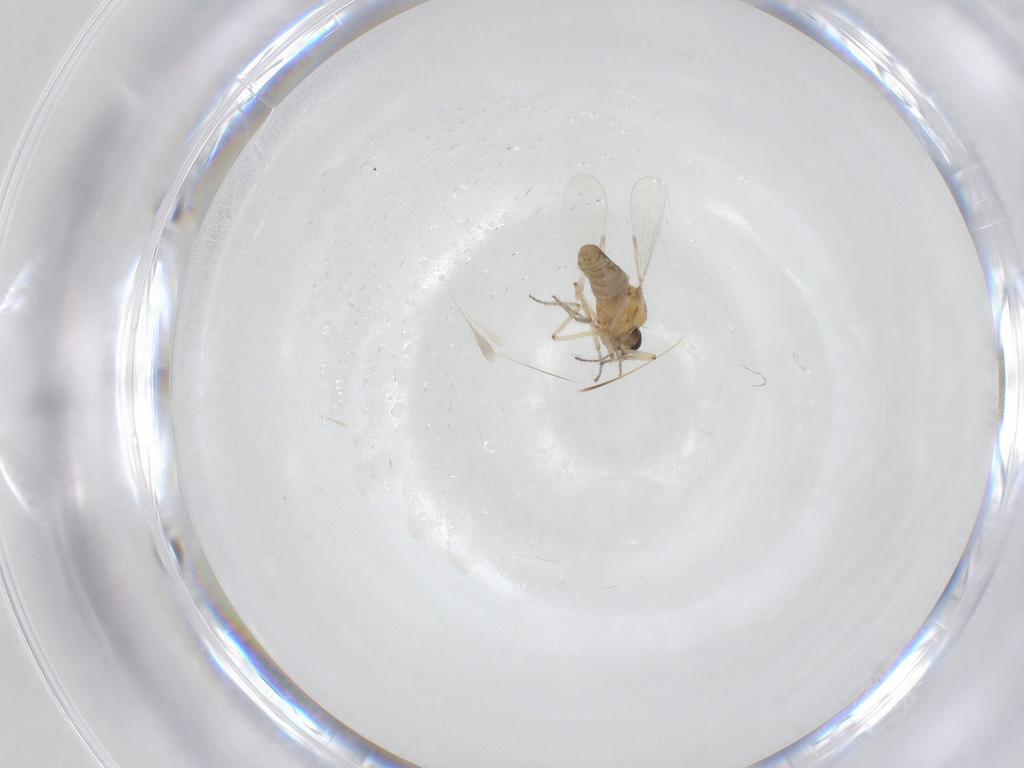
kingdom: Animalia
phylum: Arthropoda
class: Insecta
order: Diptera
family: Ceratopogonidae
